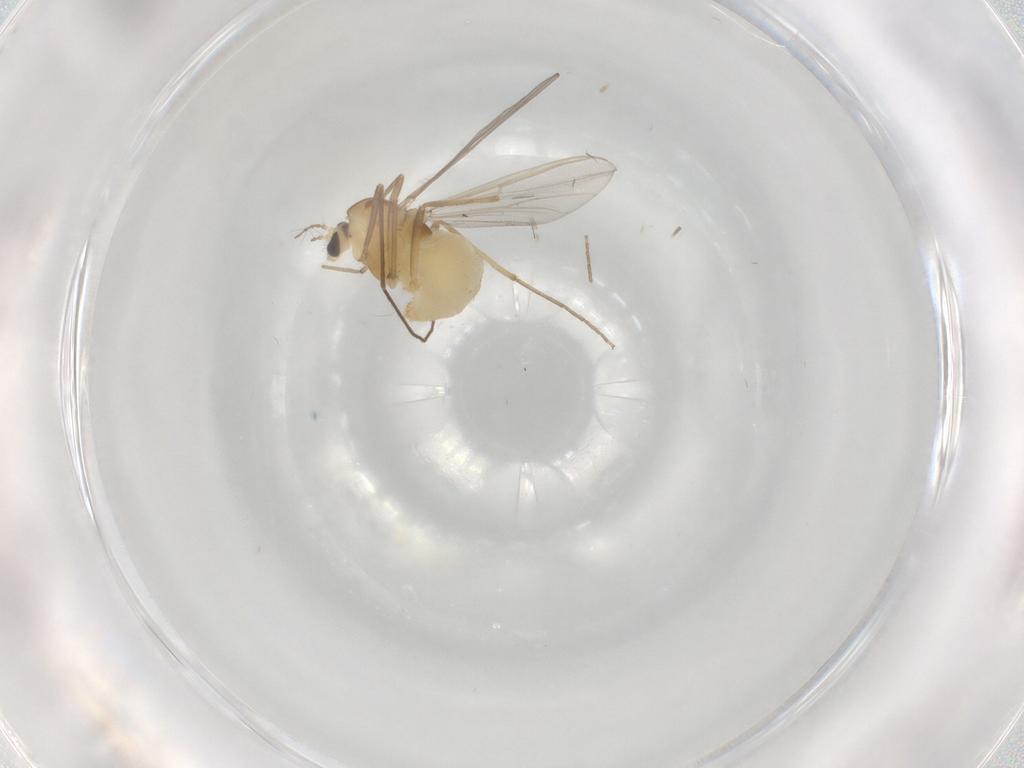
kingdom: Animalia
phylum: Arthropoda
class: Insecta
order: Diptera
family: Chironomidae
